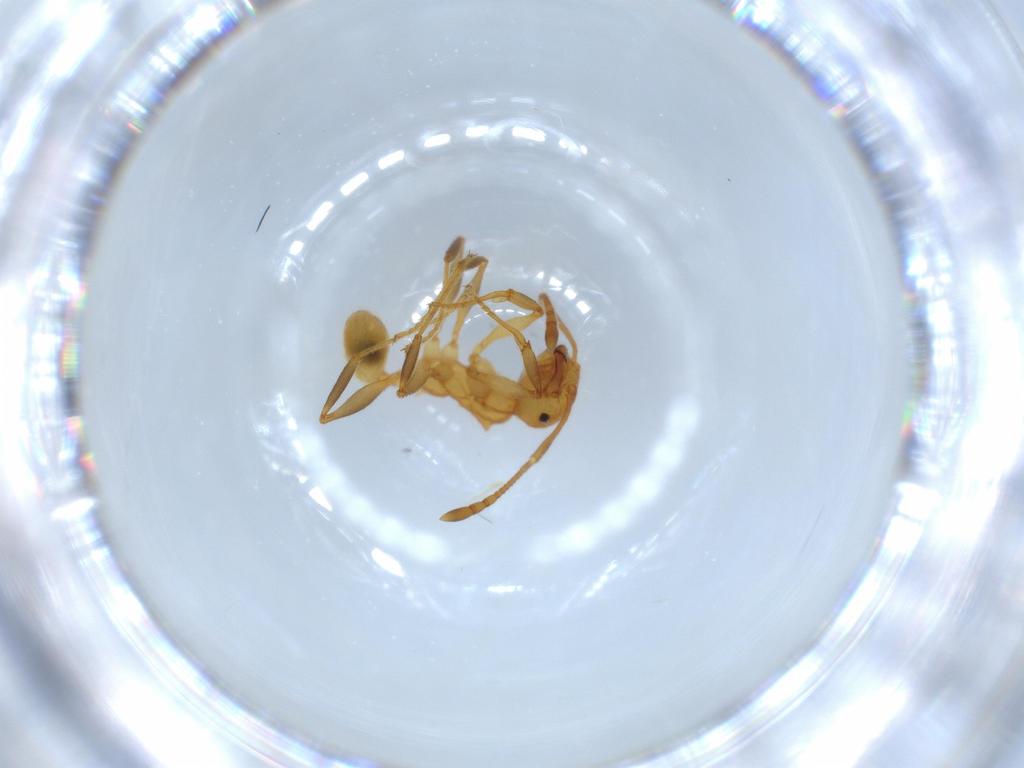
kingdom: Animalia
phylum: Arthropoda
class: Insecta
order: Hymenoptera
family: Formicidae
